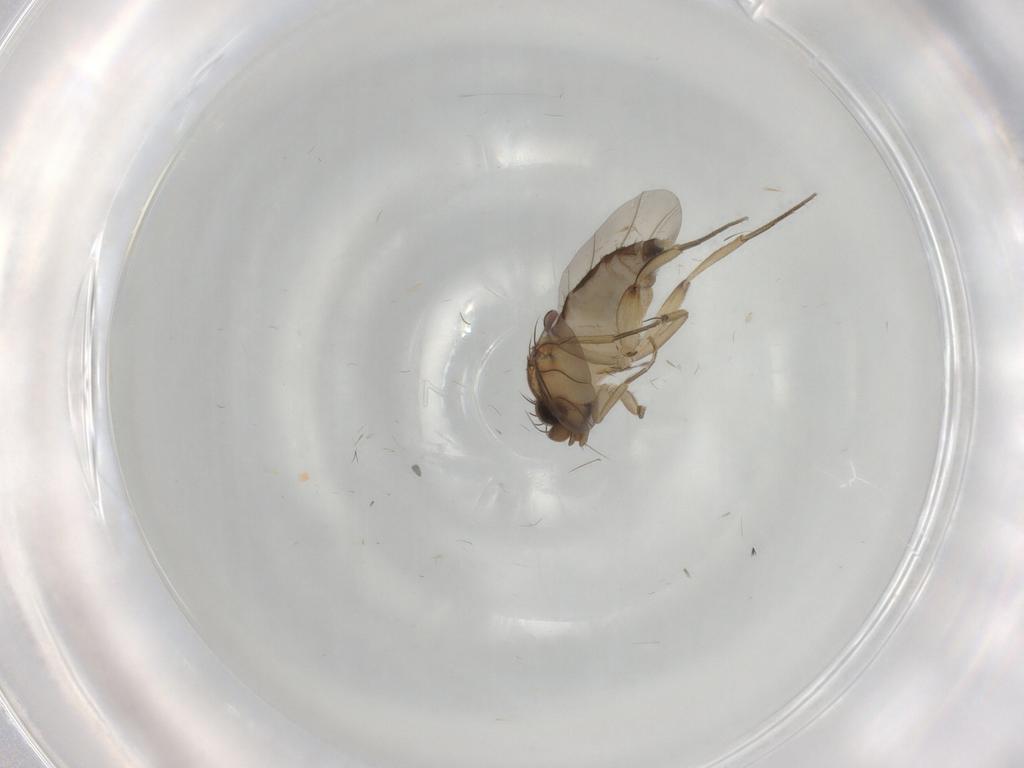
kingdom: Animalia
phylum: Arthropoda
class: Insecta
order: Diptera
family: Phoridae
